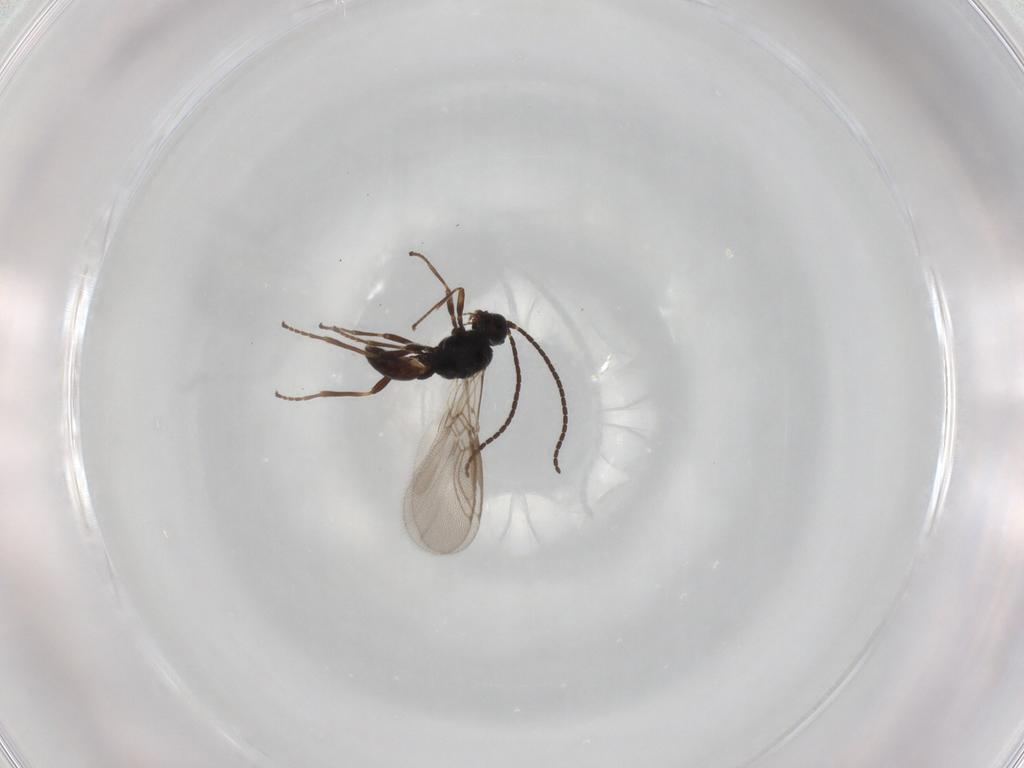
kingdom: Animalia
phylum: Arthropoda
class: Insecta
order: Hymenoptera
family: Braconidae
